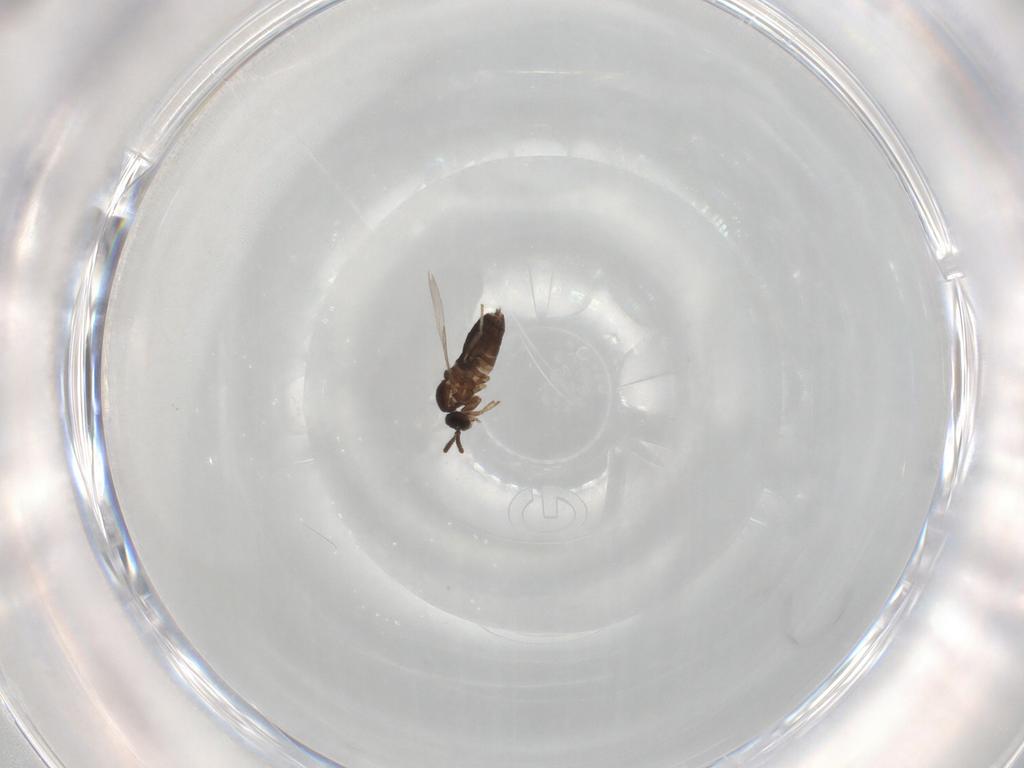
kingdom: Animalia
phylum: Arthropoda
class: Insecta
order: Diptera
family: Scatopsidae
